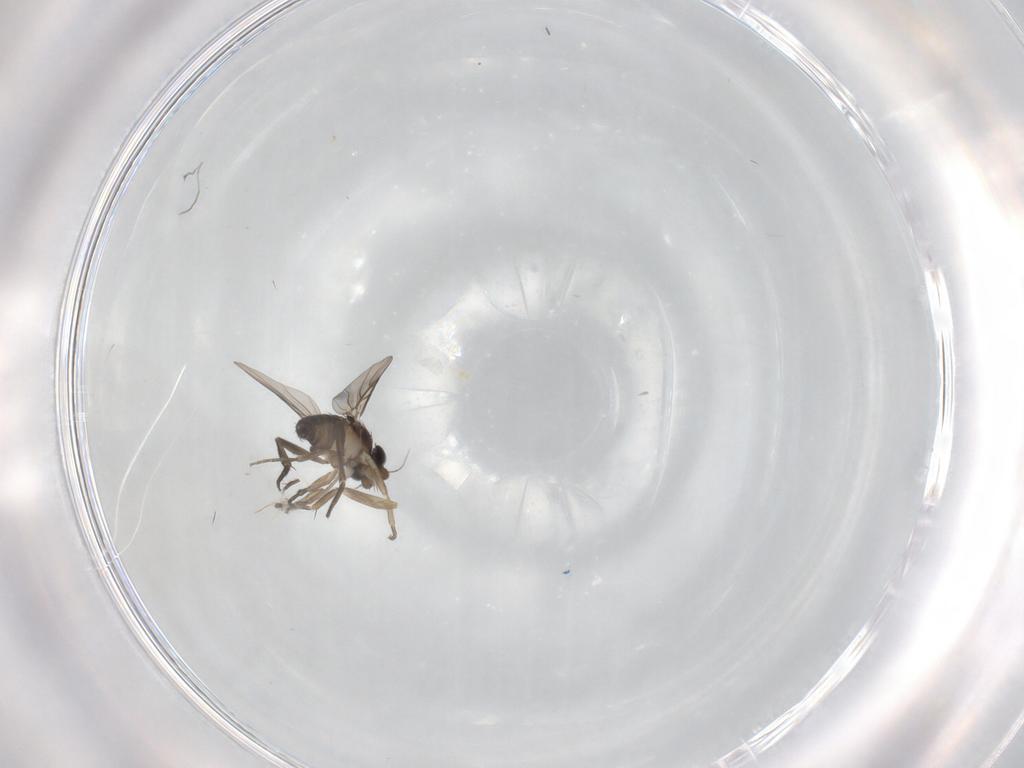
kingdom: Animalia
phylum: Arthropoda
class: Insecta
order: Diptera
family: Phoridae
